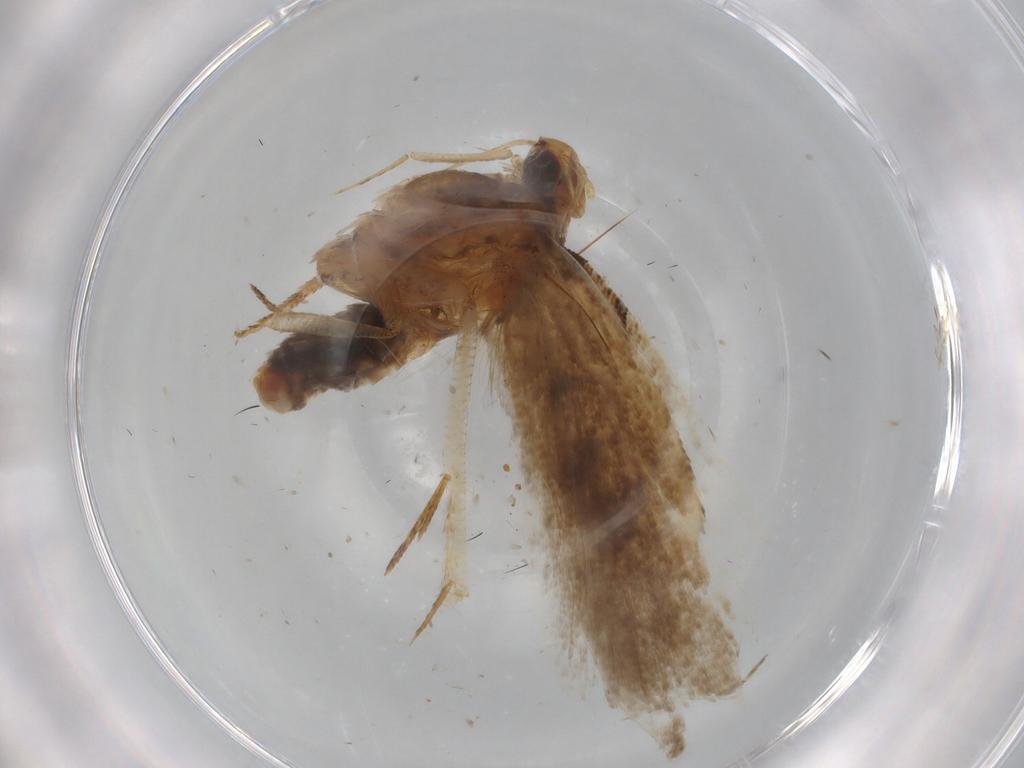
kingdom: Animalia
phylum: Arthropoda
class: Insecta
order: Lepidoptera
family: Gelechiidae
